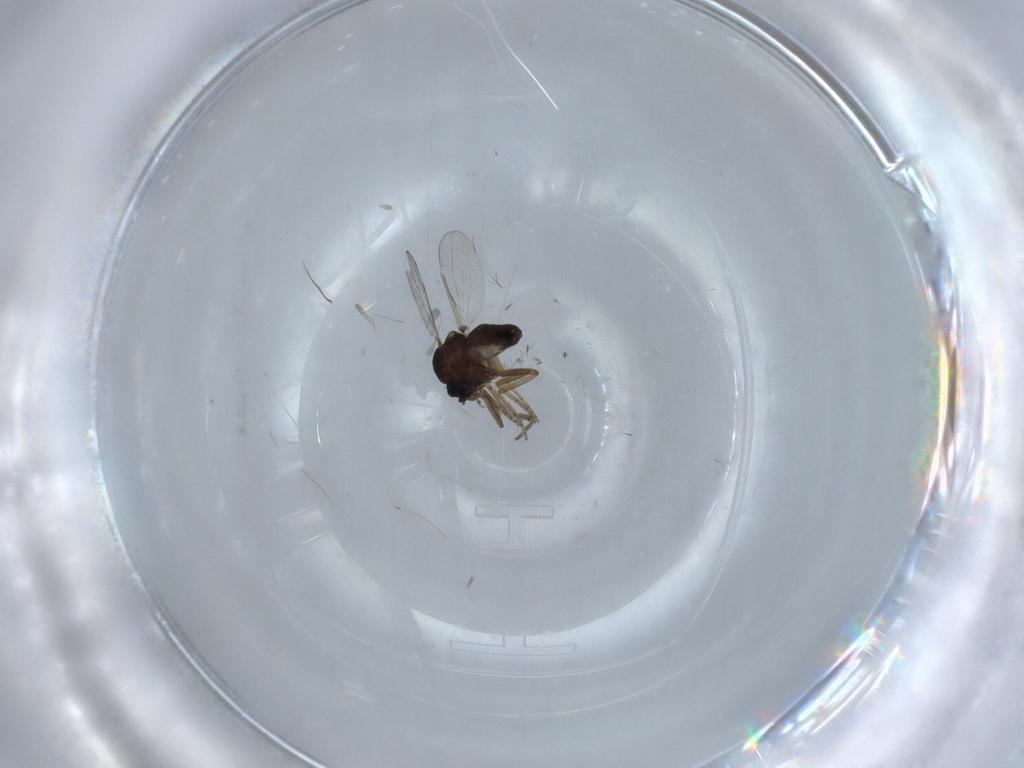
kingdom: Animalia
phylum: Arthropoda
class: Insecta
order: Diptera
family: Ceratopogonidae
